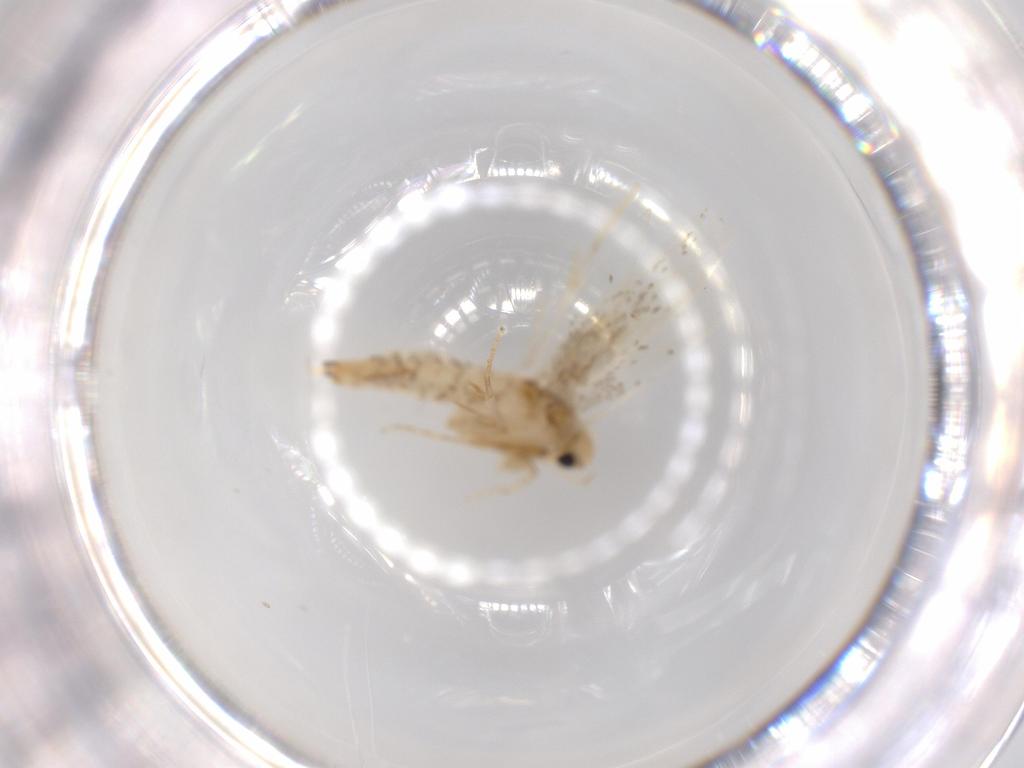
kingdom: Animalia
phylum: Arthropoda
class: Insecta
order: Lepidoptera
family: Tineidae
